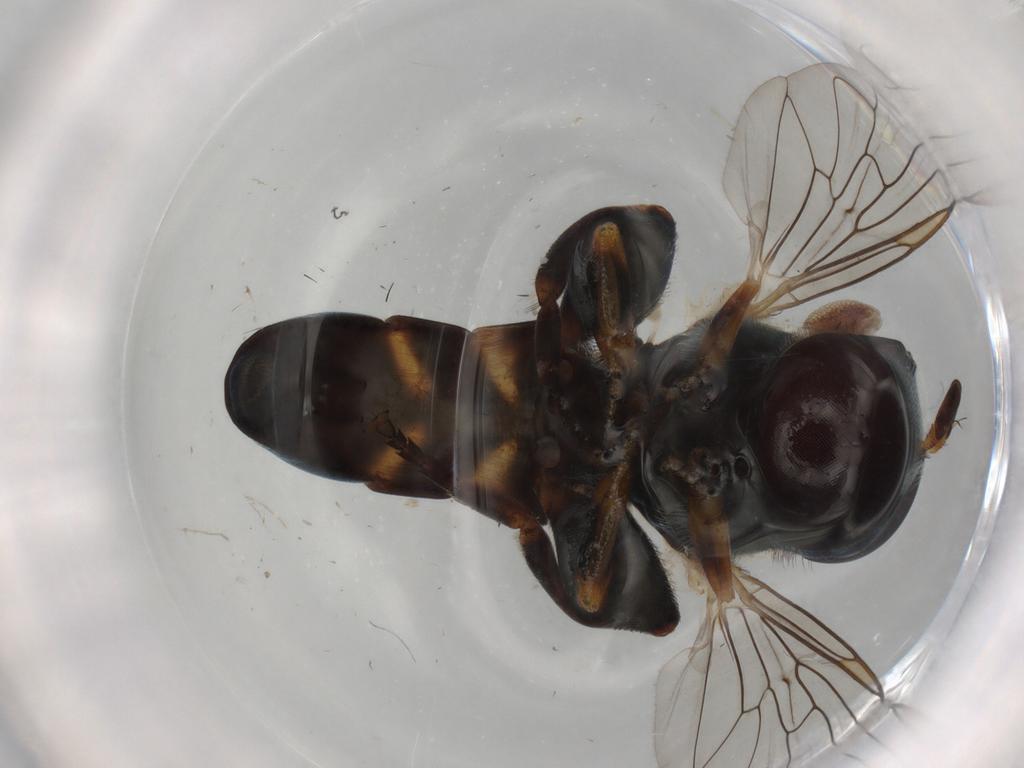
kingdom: Animalia
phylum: Arthropoda
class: Insecta
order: Diptera
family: Syrphidae
